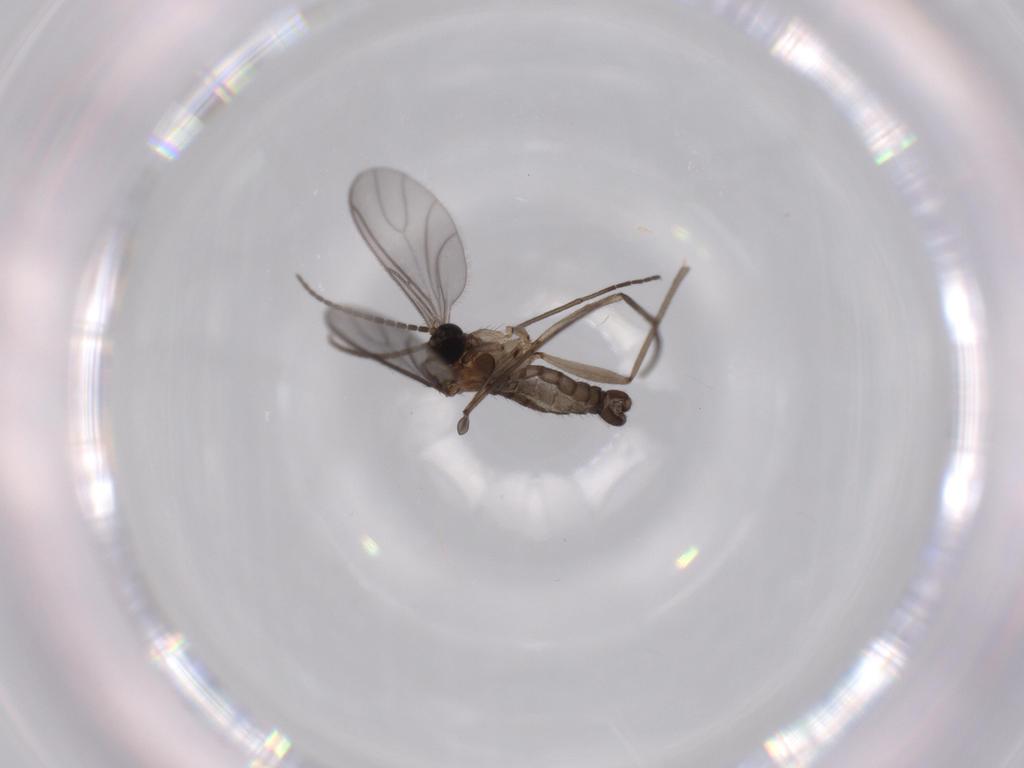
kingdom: Animalia
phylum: Arthropoda
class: Insecta
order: Diptera
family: Sciaridae
